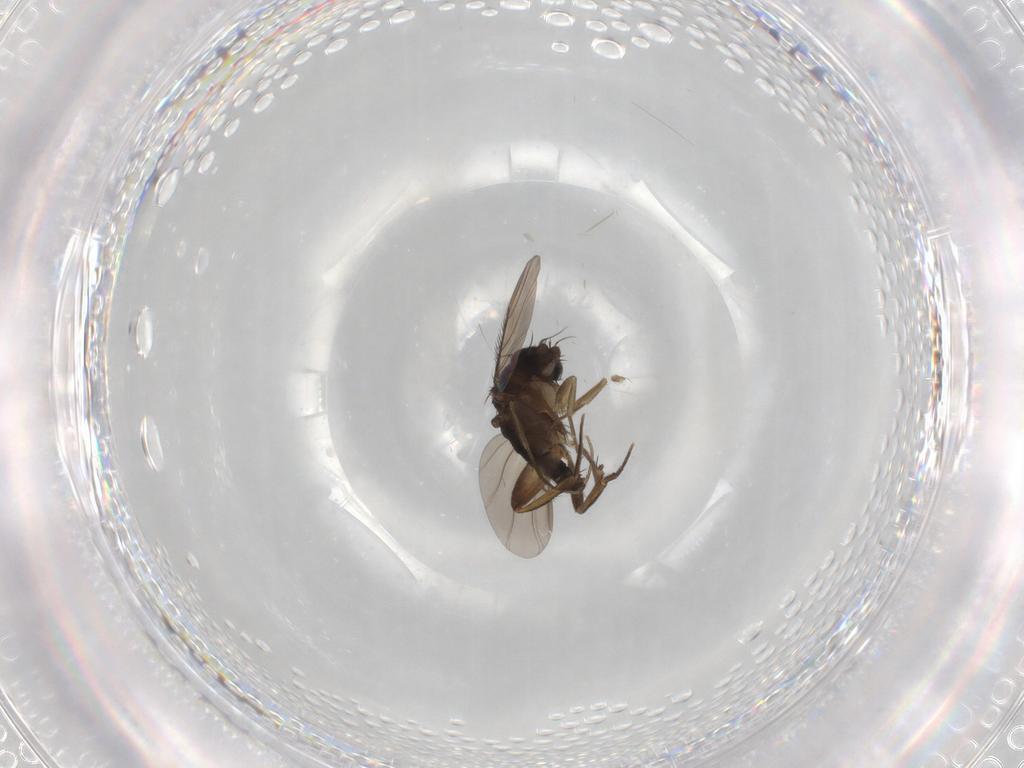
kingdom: Animalia
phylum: Arthropoda
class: Insecta
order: Diptera
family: Phoridae
